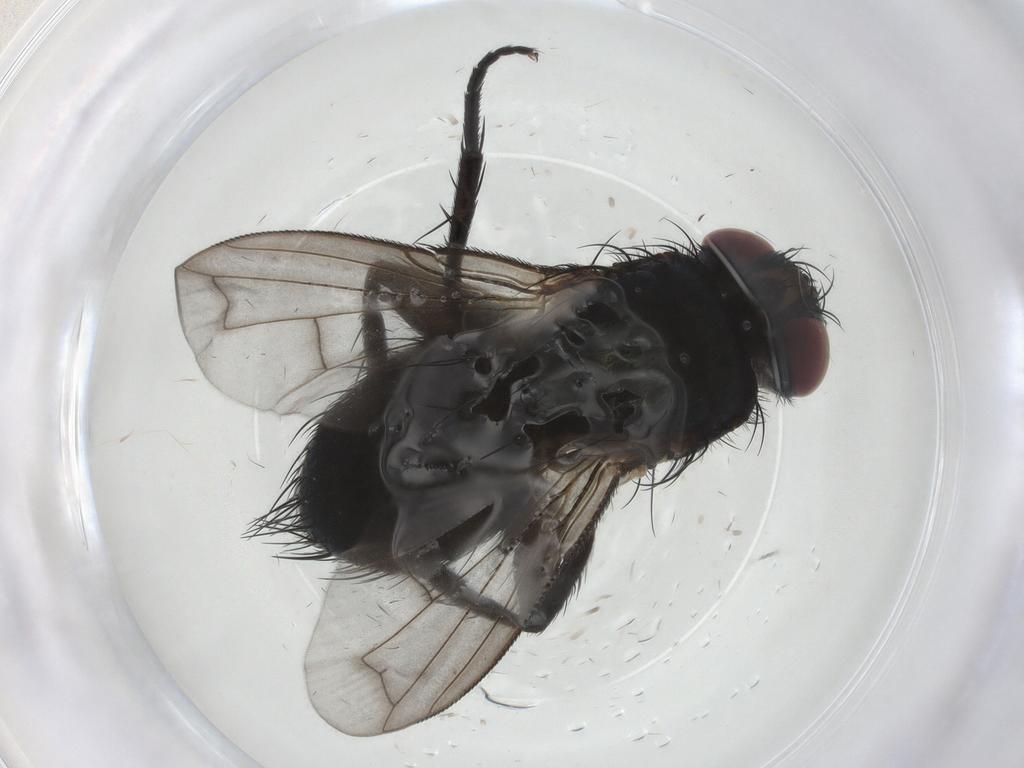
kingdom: Animalia
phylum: Arthropoda
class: Insecta
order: Diptera
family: Tachinidae
